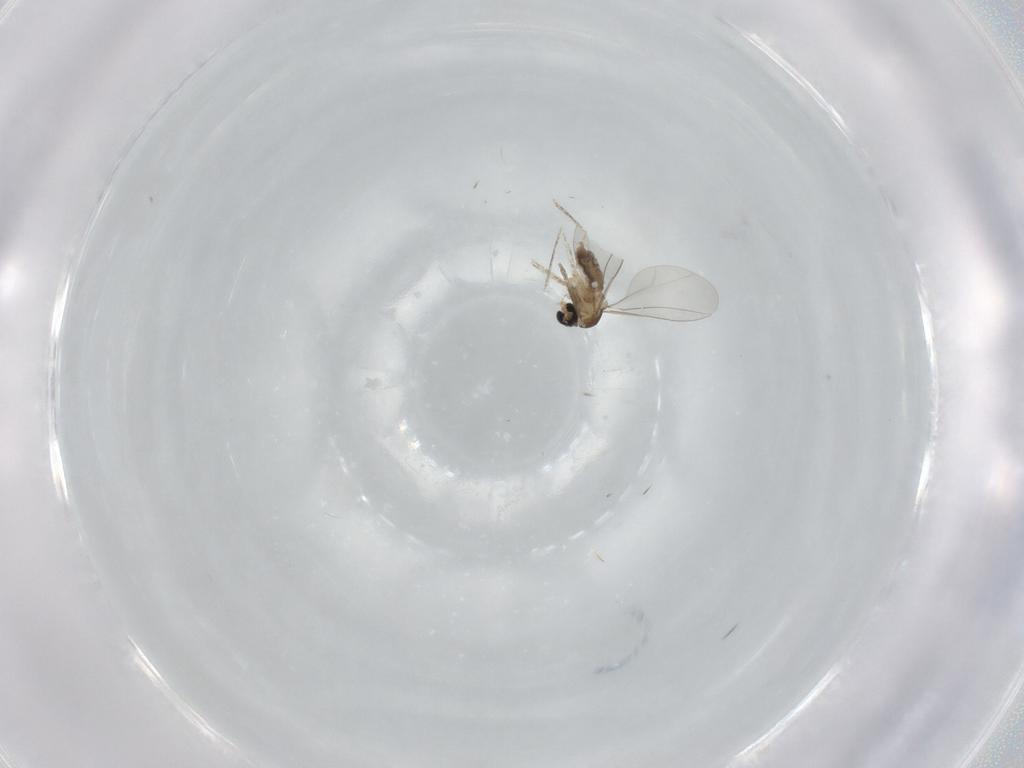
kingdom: Animalia
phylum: Arthropoda
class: Insecta
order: Diptera
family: Cecidomyiidae
